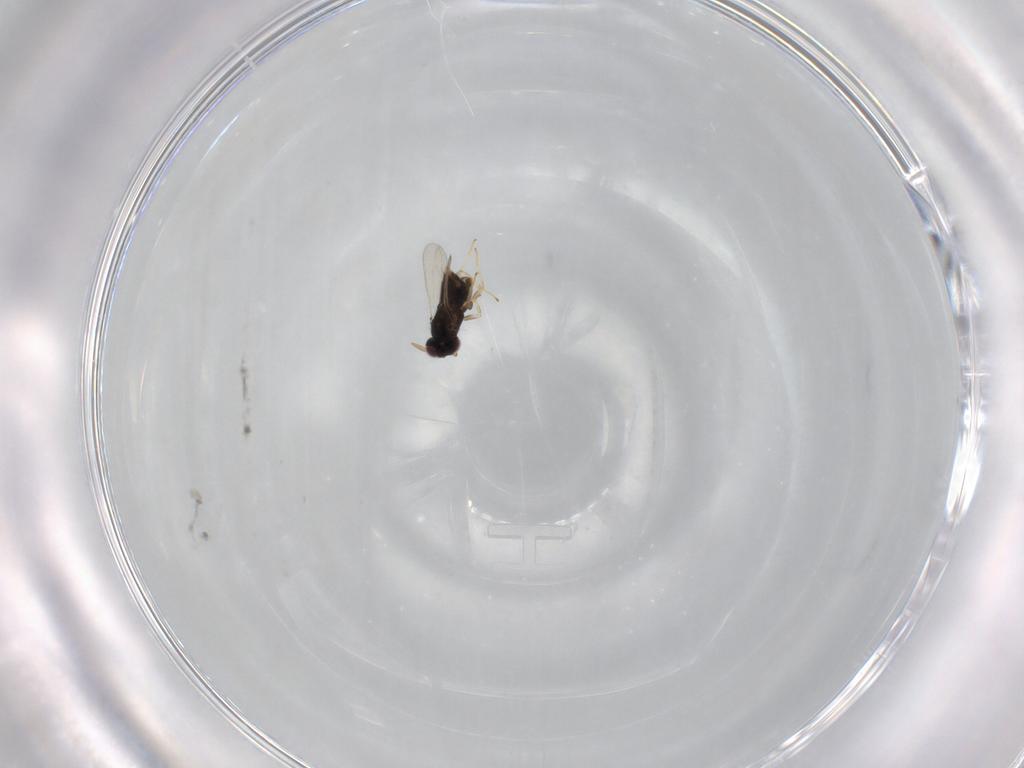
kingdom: Animalia
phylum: Arthropoda
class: Insecta
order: Hymenoptera
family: Aphelinidae
